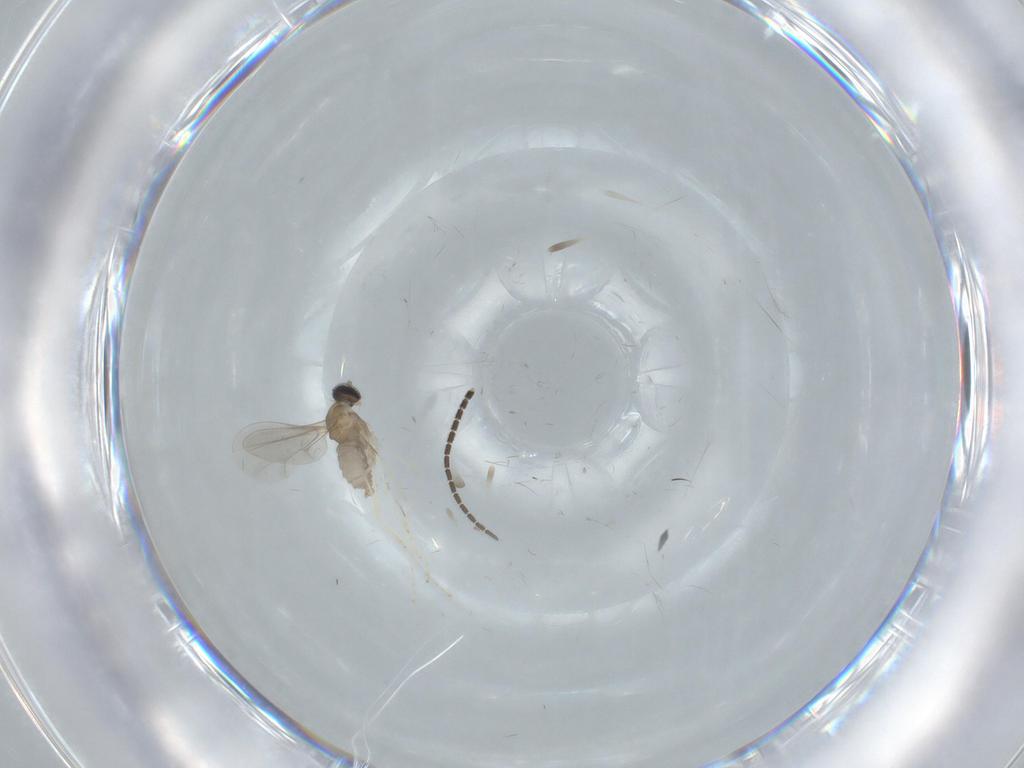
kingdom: Animalia
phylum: Arthropoda
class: Insecta
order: Diptera
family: Cecidomyiidae
